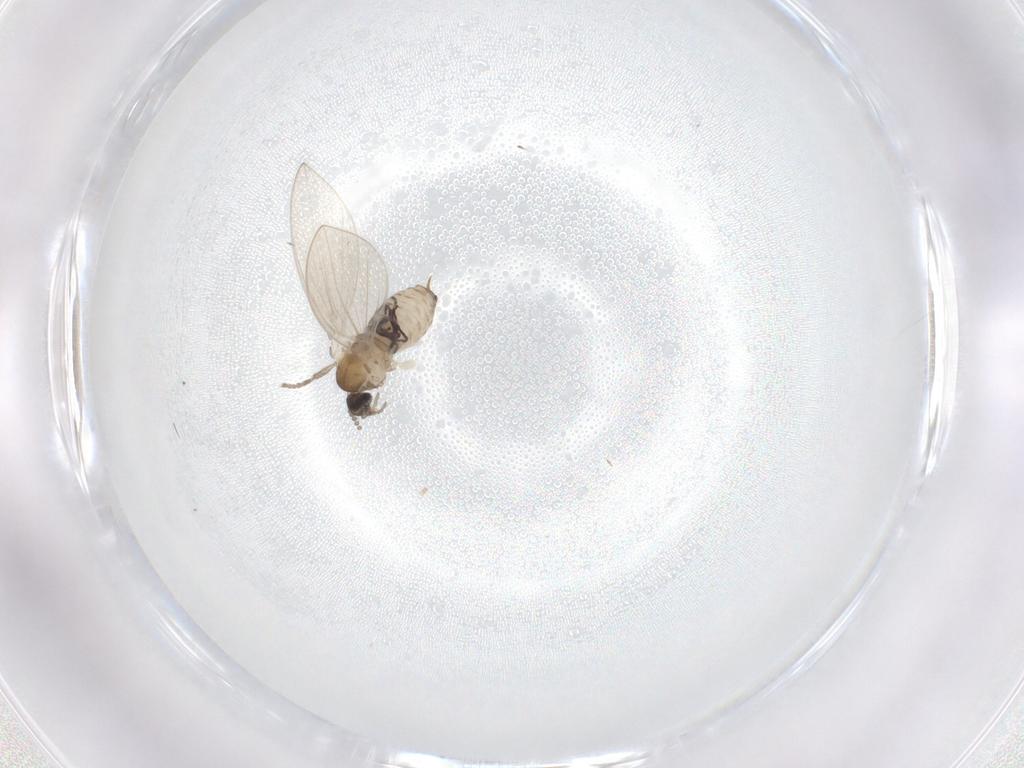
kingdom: Animalia
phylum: Arthropoda
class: Insecta
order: Diptera
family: Psychodidae
